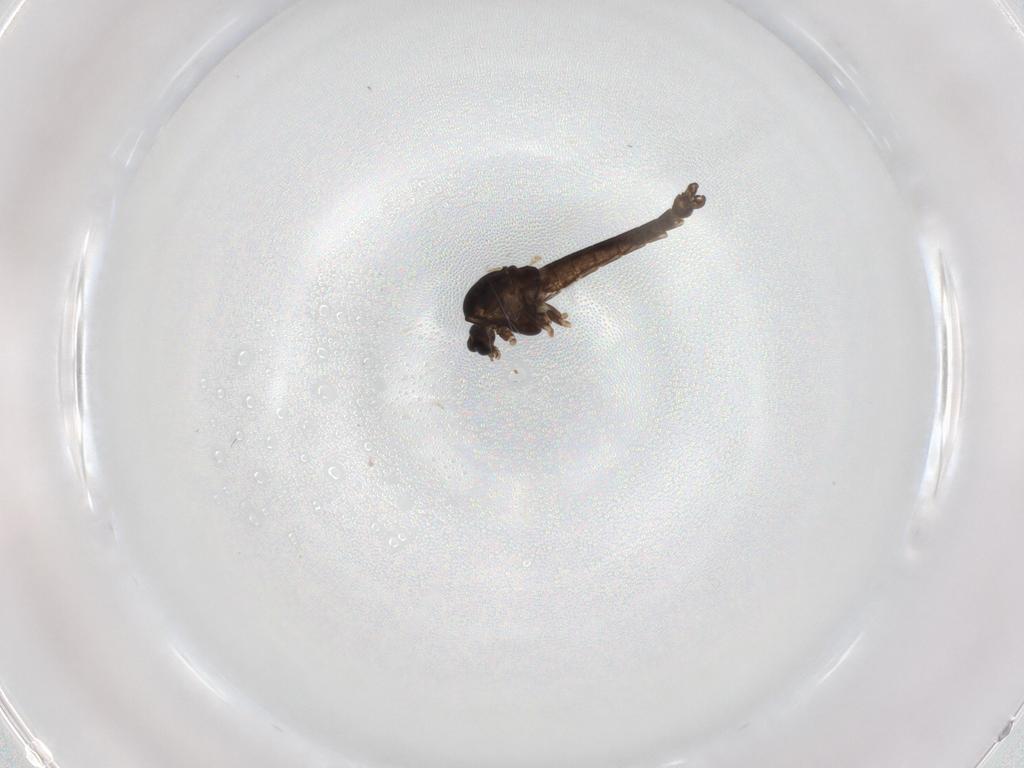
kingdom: Animalia
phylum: Arthropoda
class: Insecta
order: Diptera
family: Chironomidae
